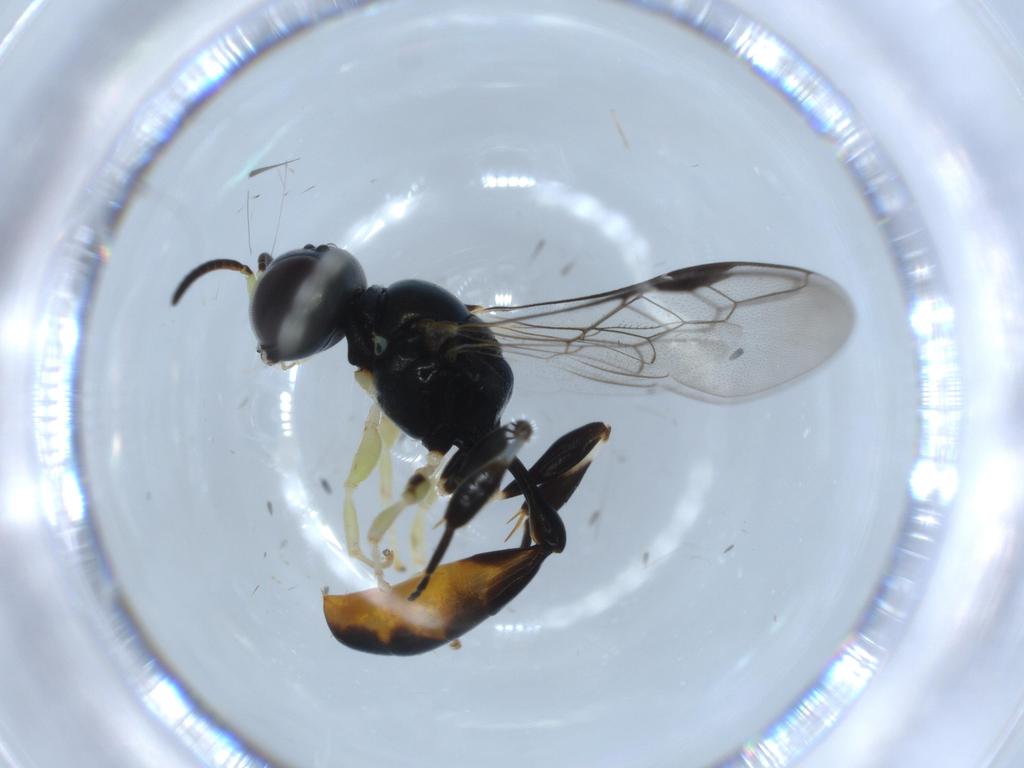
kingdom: Animalia
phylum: Arthropoda
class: Insecta
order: Hymenoptera
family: Crabronidae
